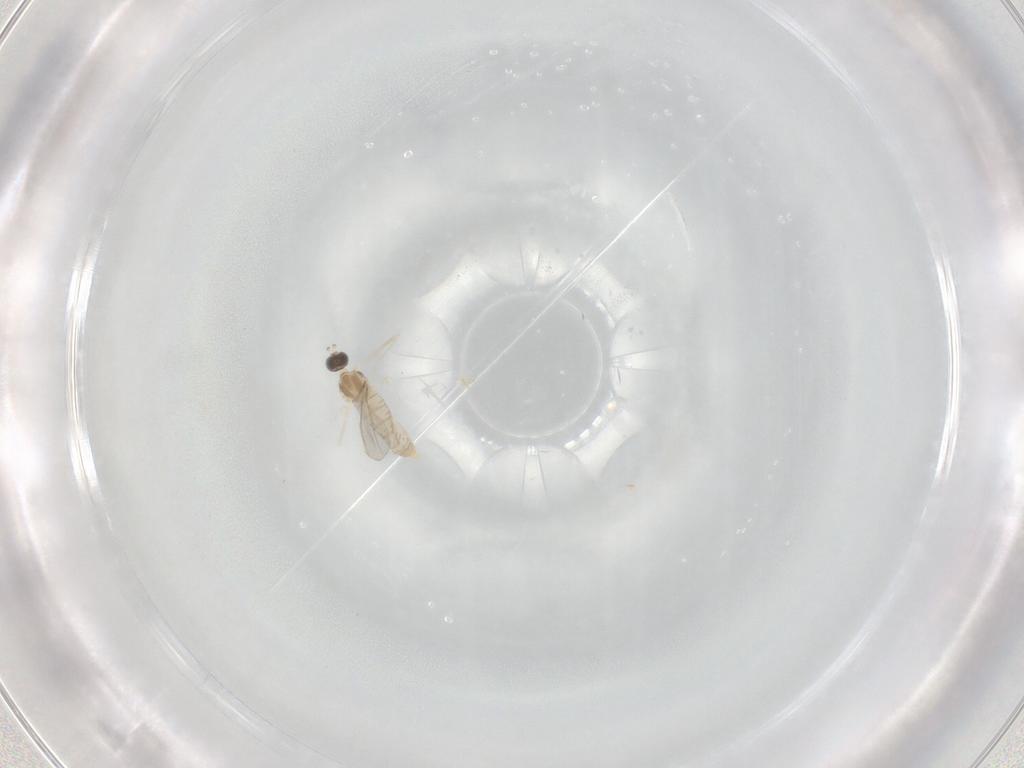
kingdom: Animalia
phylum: Arthropoda
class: Insecta
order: Diptera
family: Cecidomyiidae
